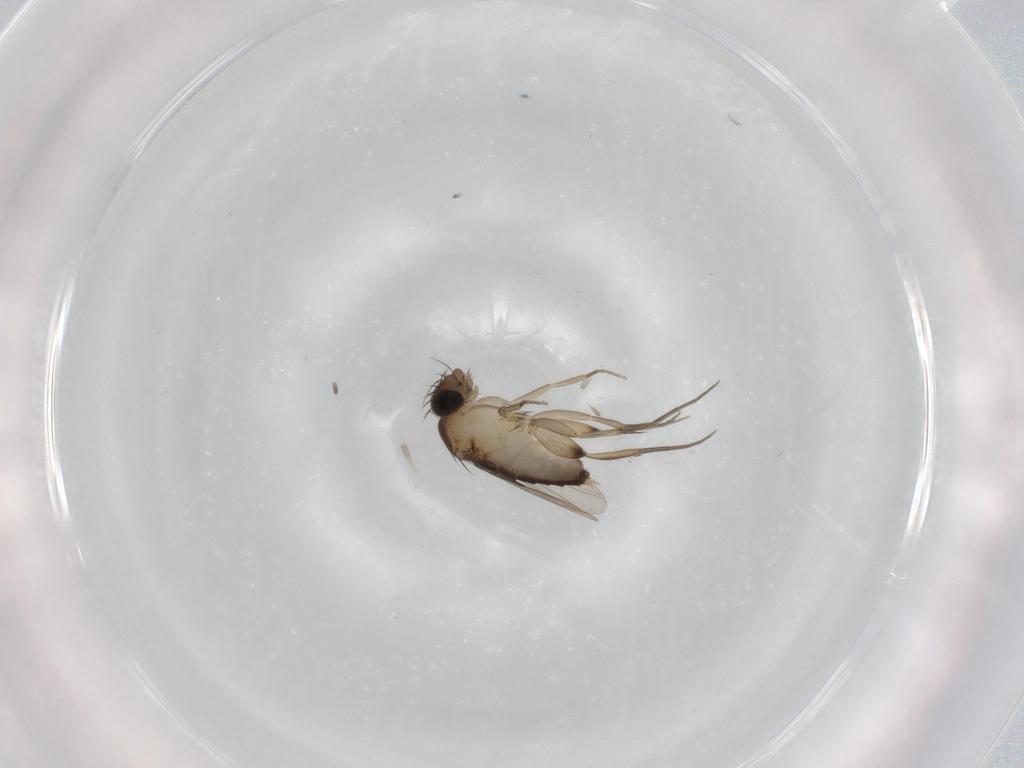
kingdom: Animalia
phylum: Arthropoda
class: Insecta
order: Diptera
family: Phoridae
